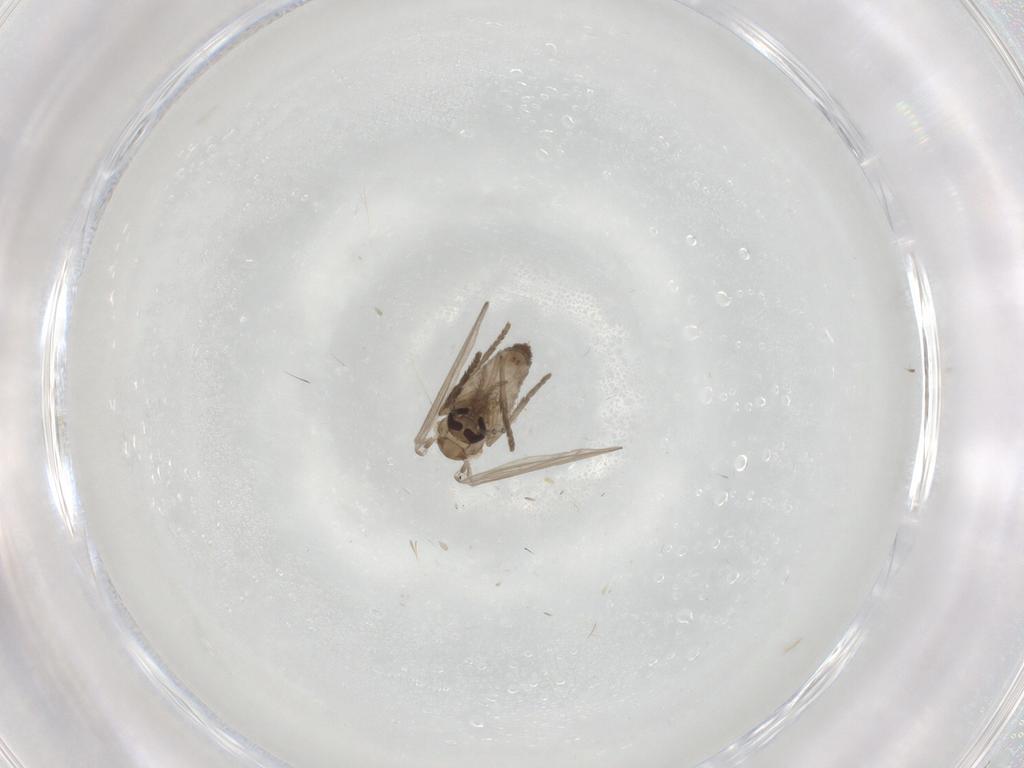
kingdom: Animalia
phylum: Arthropoda
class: Insecta
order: Diptera
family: Psychodidae
